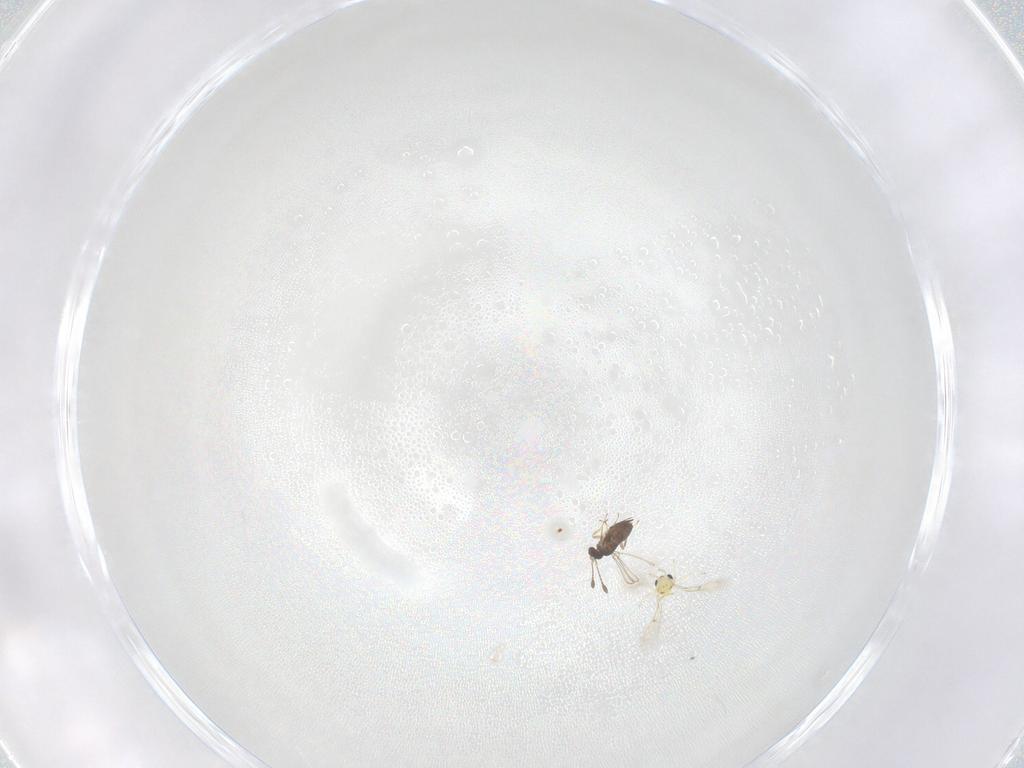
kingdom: Animalia
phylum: Arthropoda
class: Insecta
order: Hymenoptera
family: Trichogrammatidae
